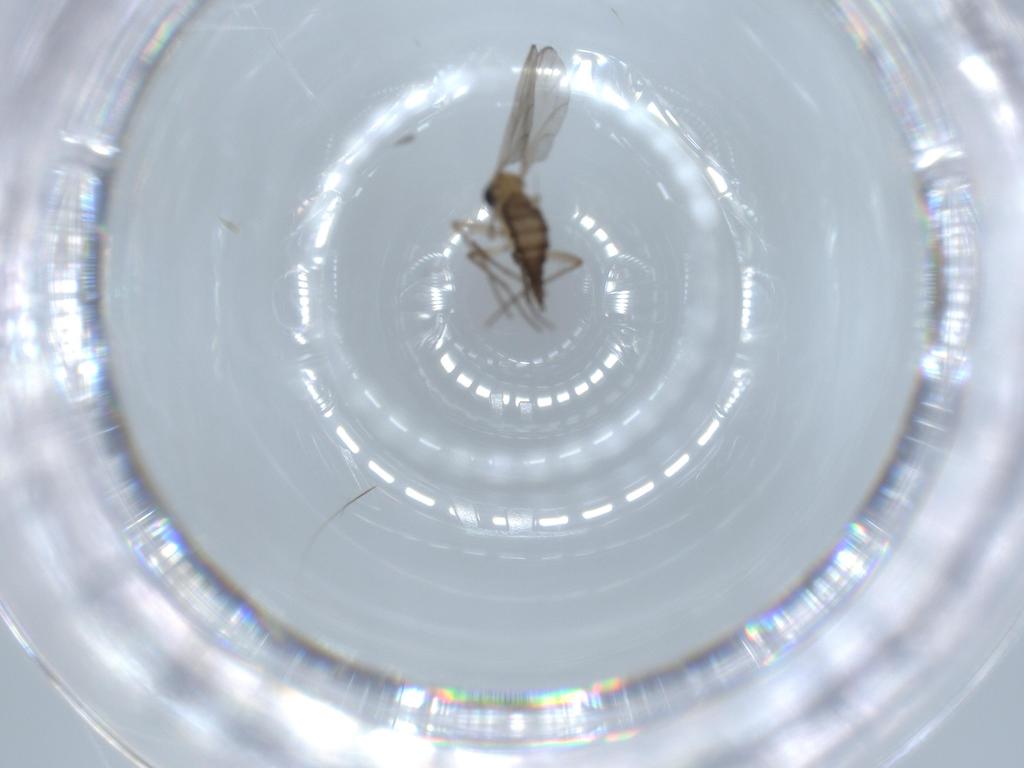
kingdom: Animalia
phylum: Arthropoda
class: Insecta
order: Diptera
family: Sciaridae
